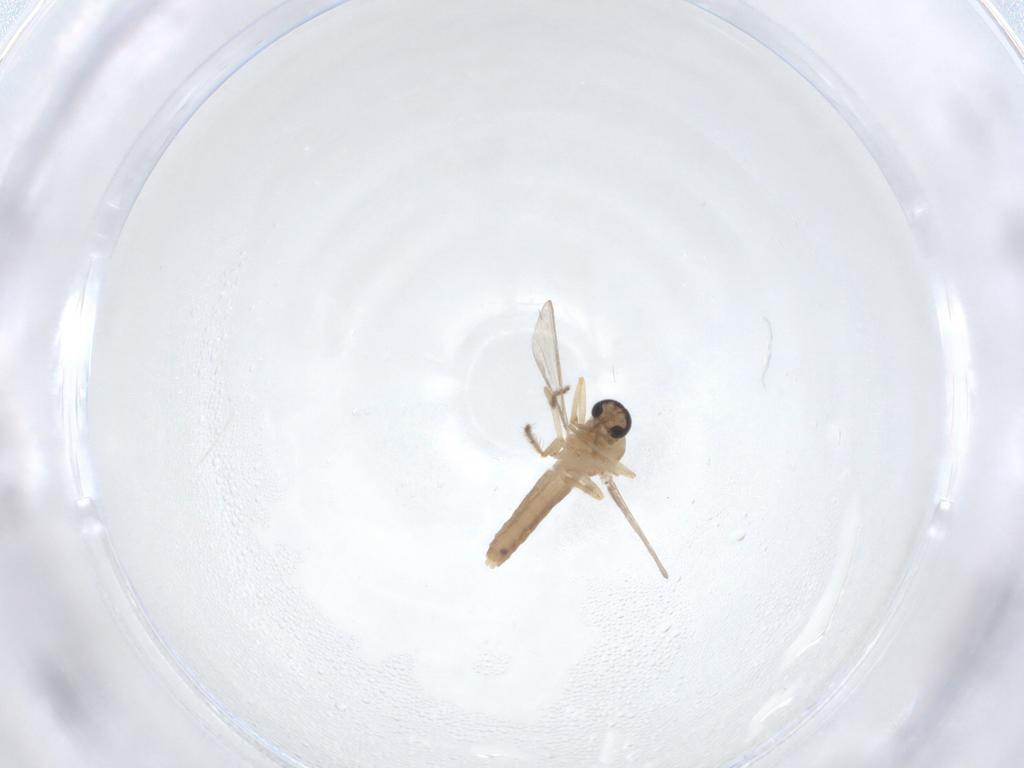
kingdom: Animalia
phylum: Arthropoda
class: Insecta
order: Diptera
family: Ceratopogonidae
